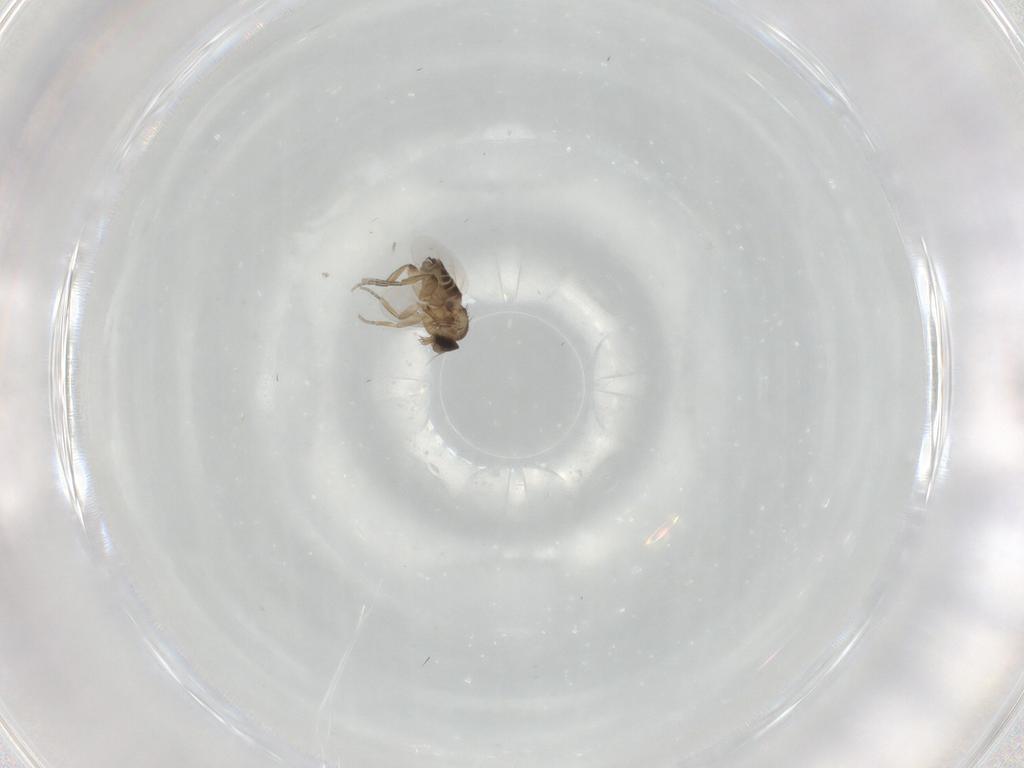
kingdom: Animalia
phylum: Arthropoda
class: Insecta
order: Diptera
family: Phoridae
